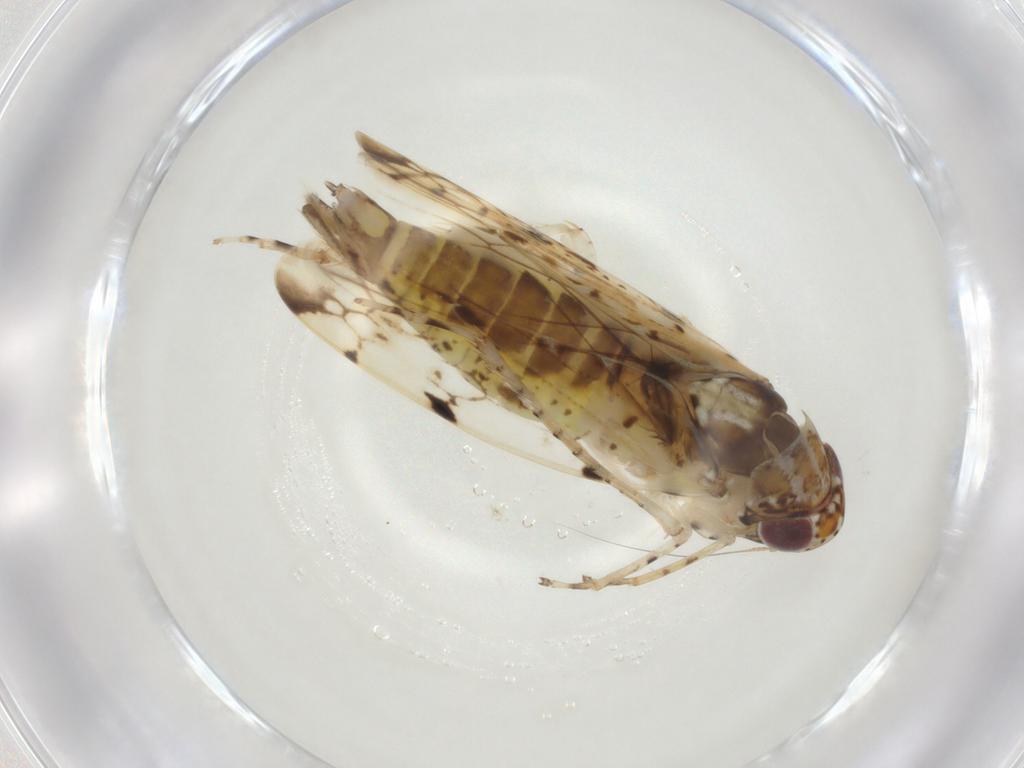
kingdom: Animalia
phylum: Arthropoda
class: Insecta
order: Hemiptera
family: Cicadellidae
